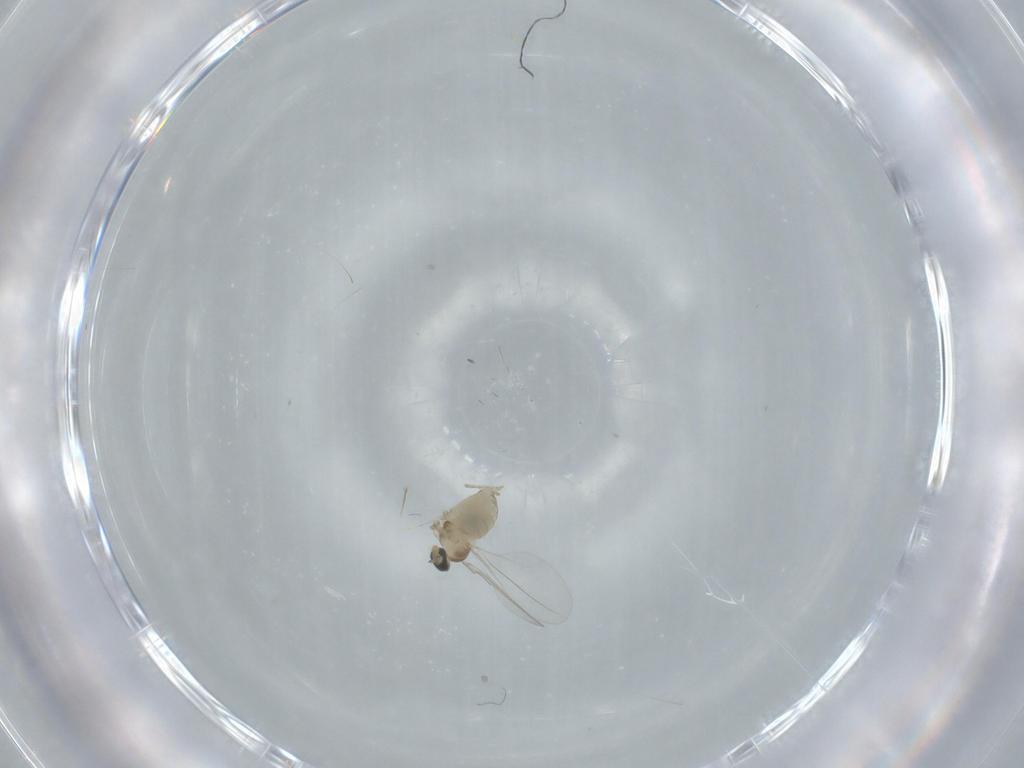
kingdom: Animalia
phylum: Arthropoda
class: Insecta
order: Diptera
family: Cecidomyiidae
